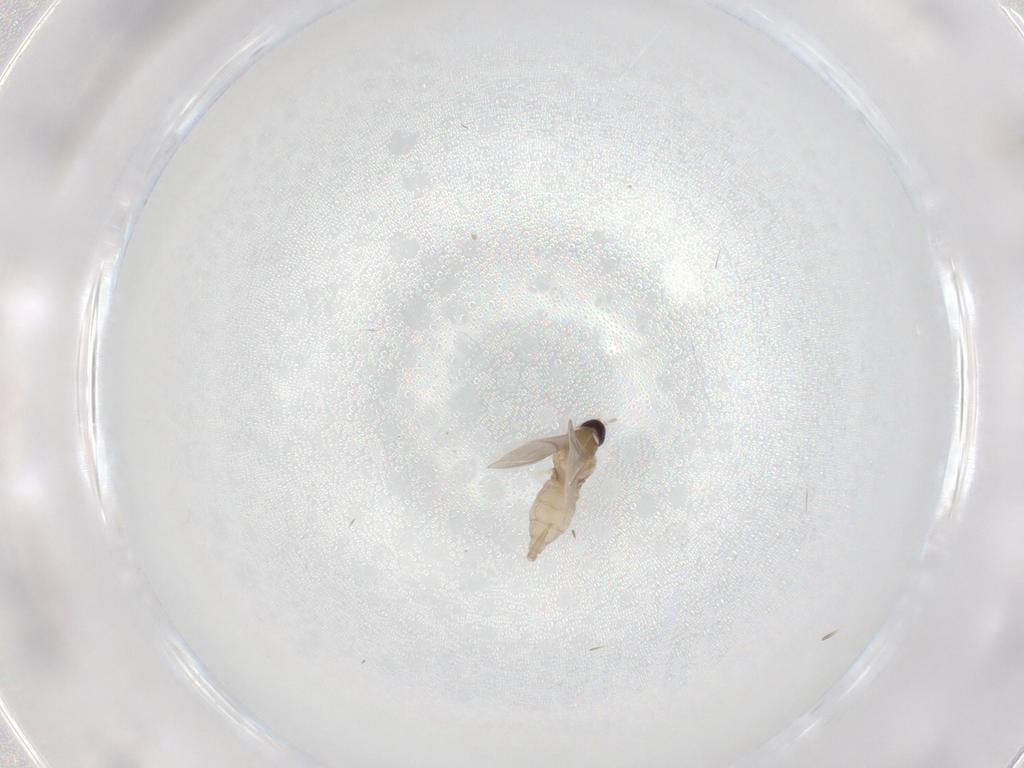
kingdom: Animalia
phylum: Arthropoda
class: Insecta
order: Diptera
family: Cecidomyiidae
